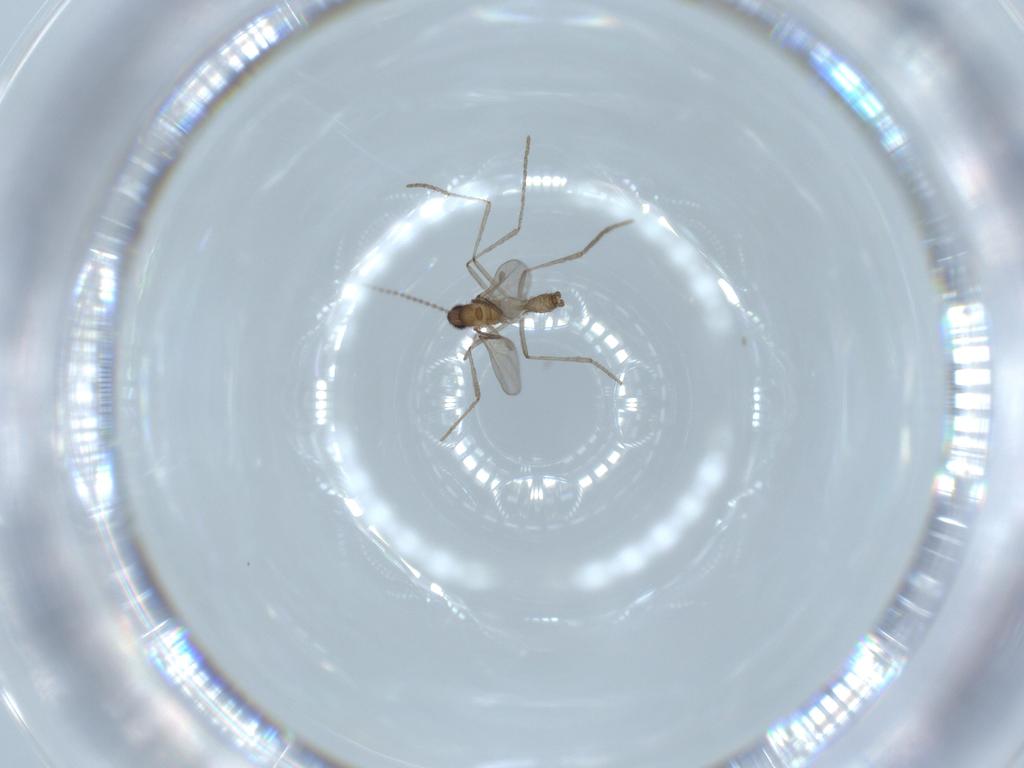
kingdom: Animalia
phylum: Arthropoda
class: Insecta
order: Diptera
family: Cecidomyiidae
